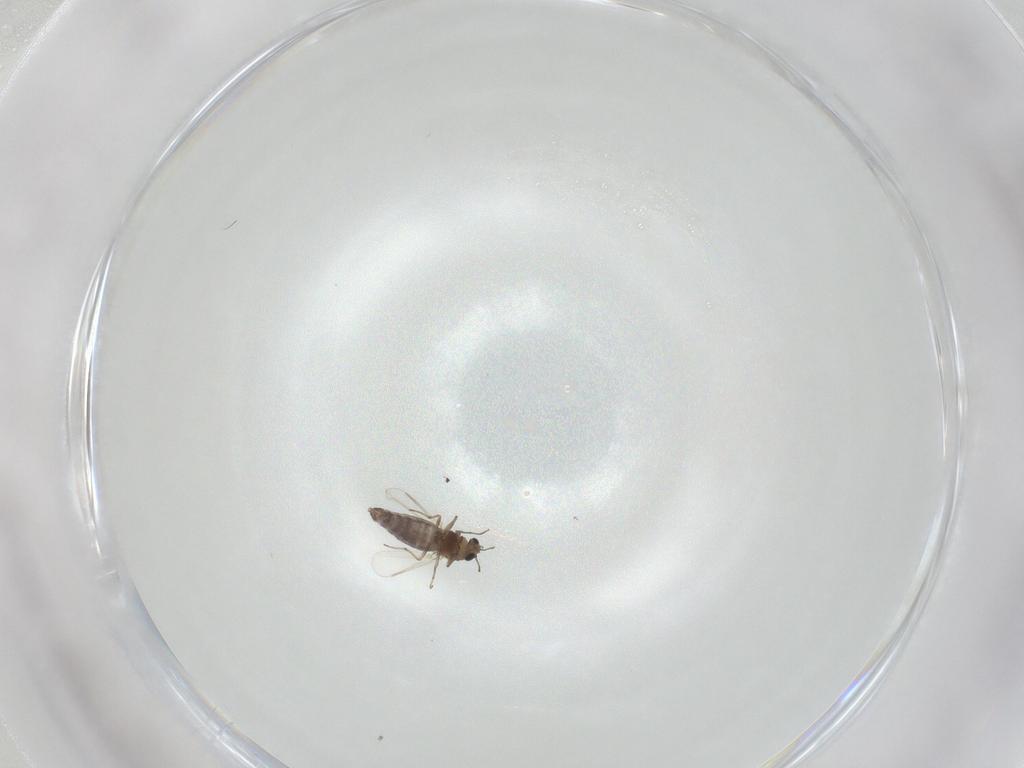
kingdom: Animalia
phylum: Arthropoda
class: Insecta
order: Diptera
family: Chironomidae
